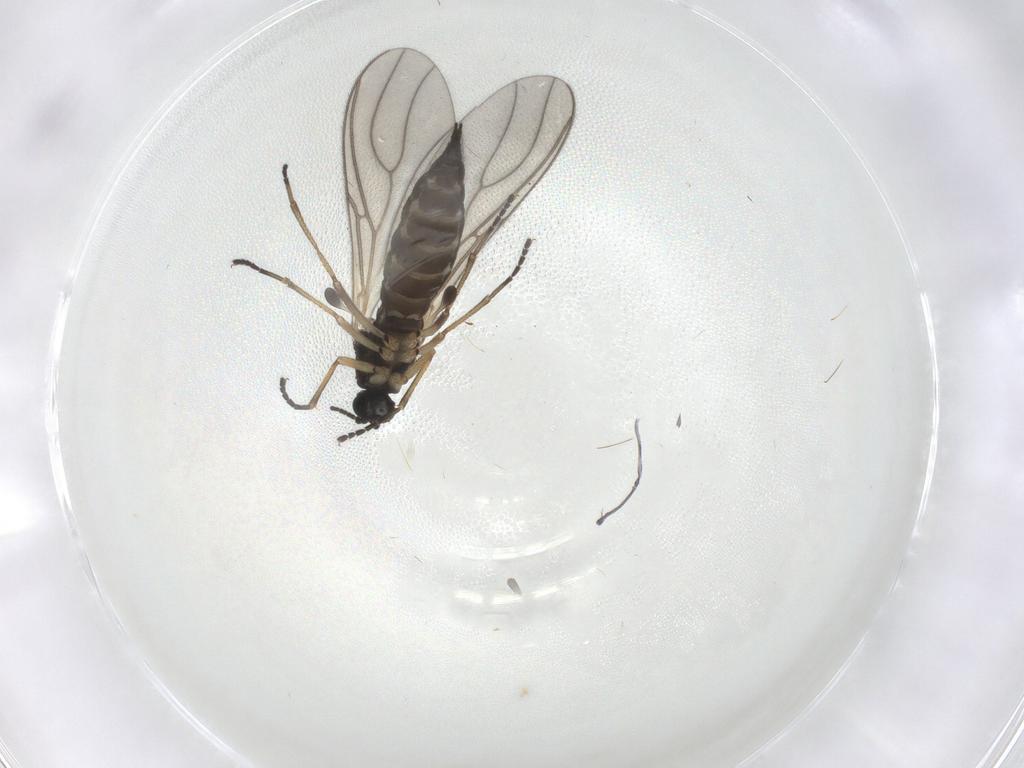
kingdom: Animalia
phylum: Arthropoda
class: Insecta
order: Diptera
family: Sciaridae
